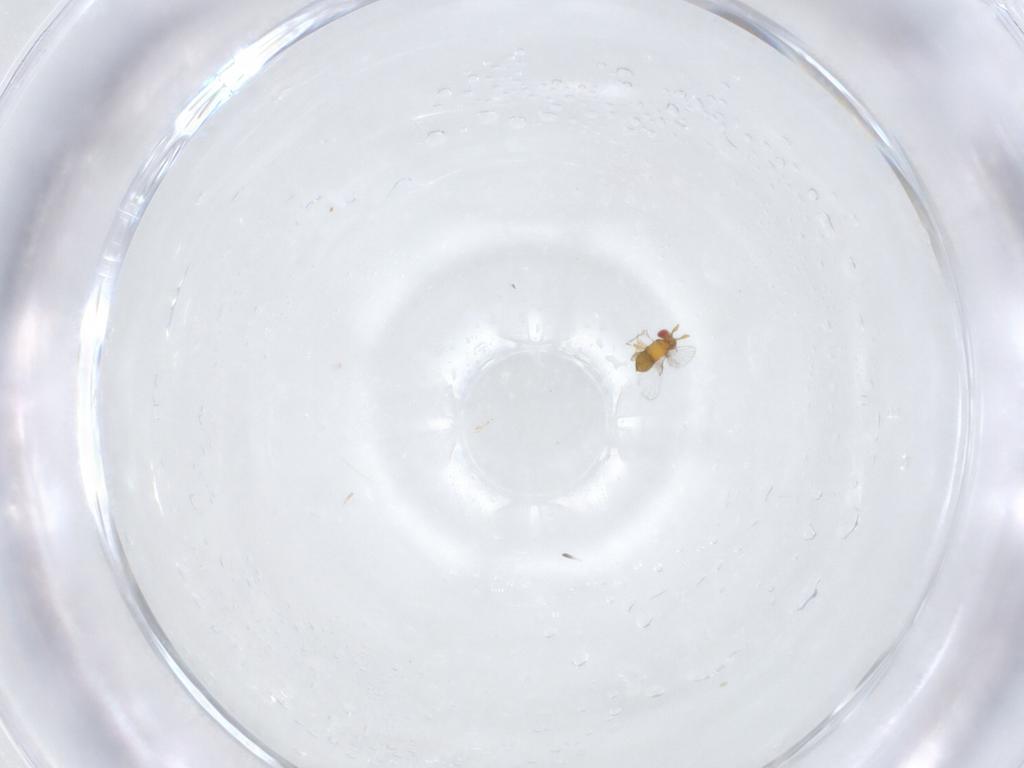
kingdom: Animalia
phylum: Arthropoda
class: Insecta
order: Hymenoptera
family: Trichogrammatidae
